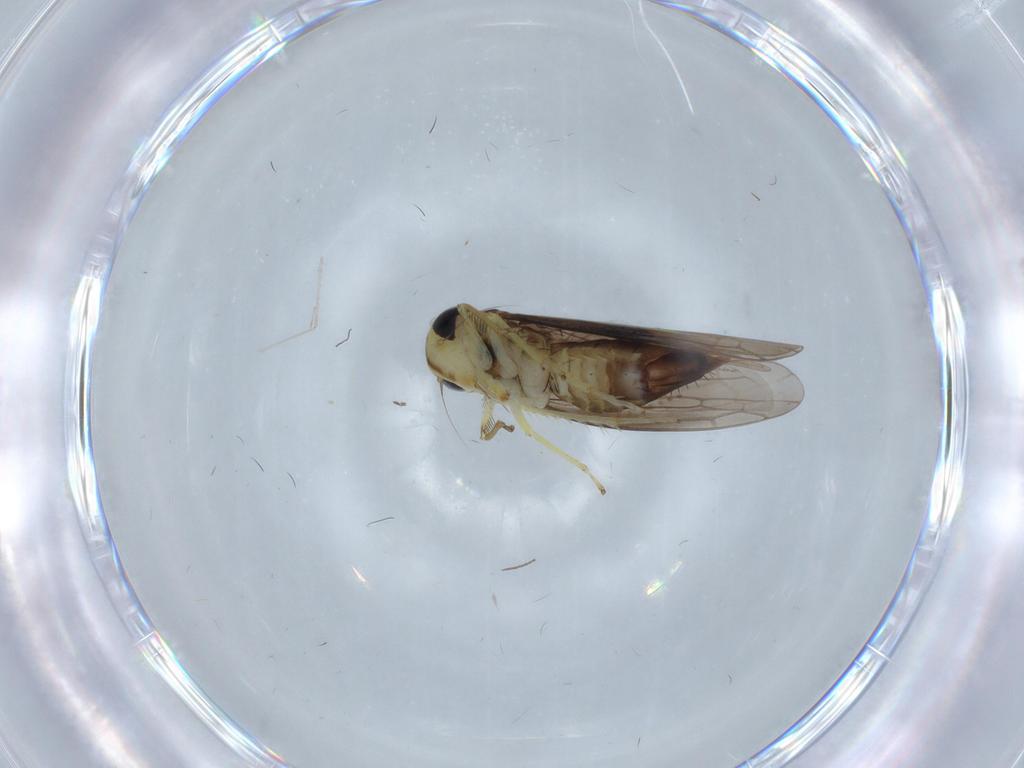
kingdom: Animalia
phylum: Arthropoda
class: Insecta
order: Hemiptera
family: Cicadellidae
